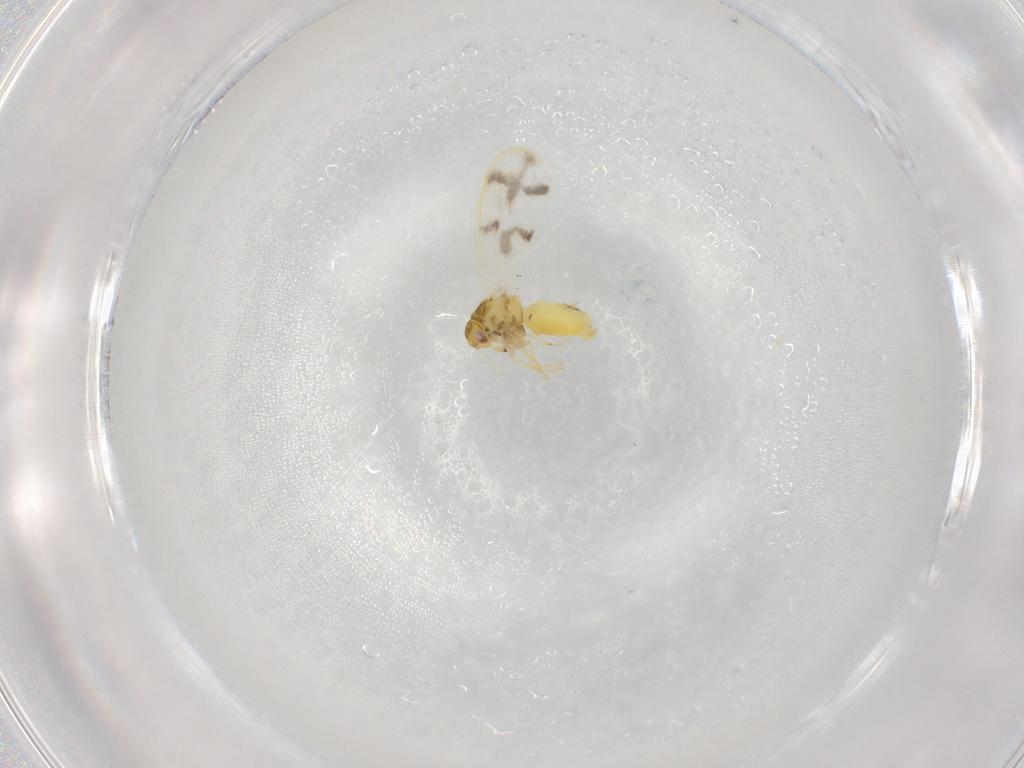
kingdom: Animalia
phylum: Arthropoda
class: Insecta
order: Hemiptera
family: Aleyrodidae
